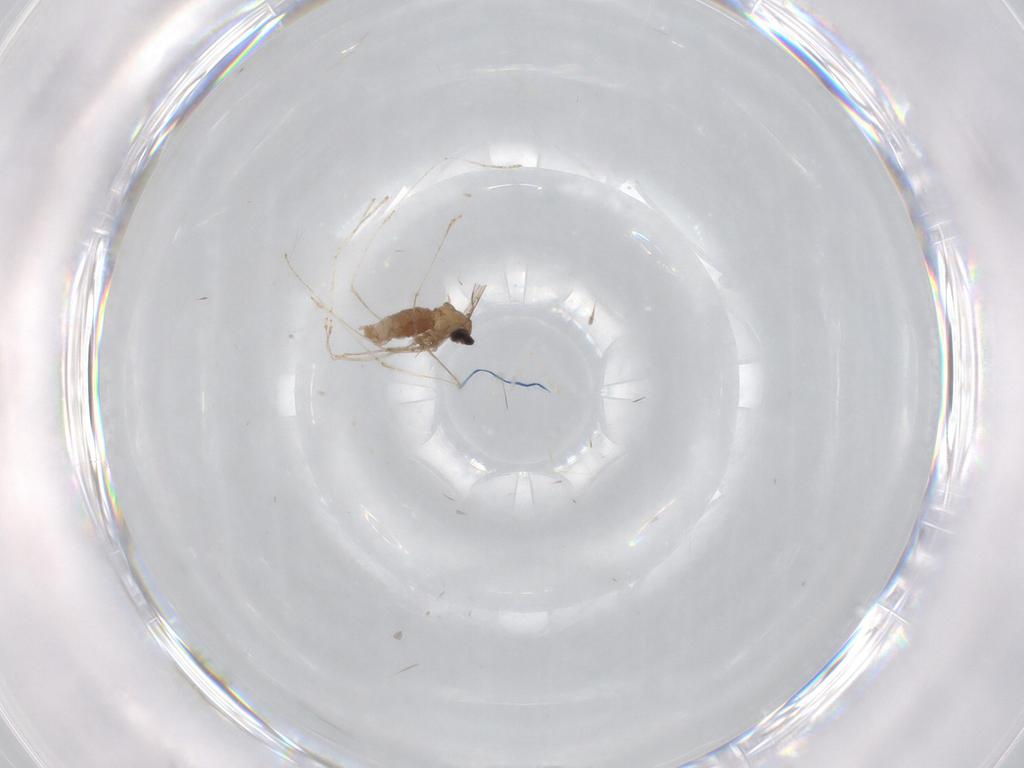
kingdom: Animalia
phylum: Arthropoda
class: Insecta
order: Diptera
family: Cecidomyiidae
